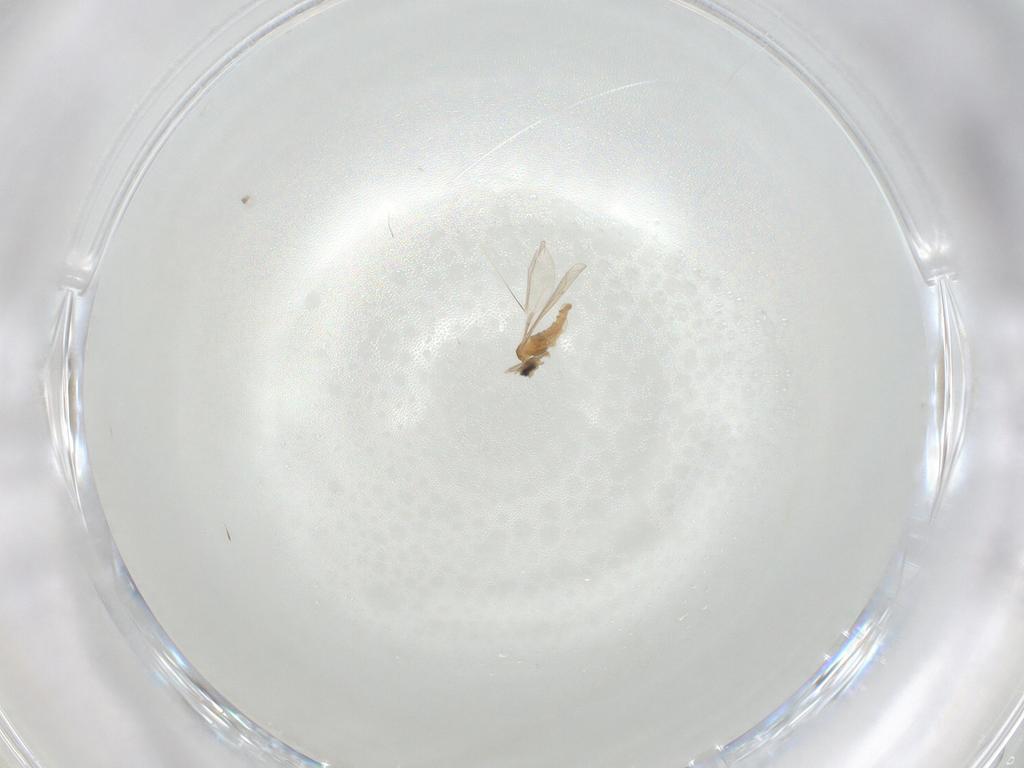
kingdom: Animalia
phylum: Arthropoda
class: Insecta
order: Diptera
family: Cecidomyiidae
